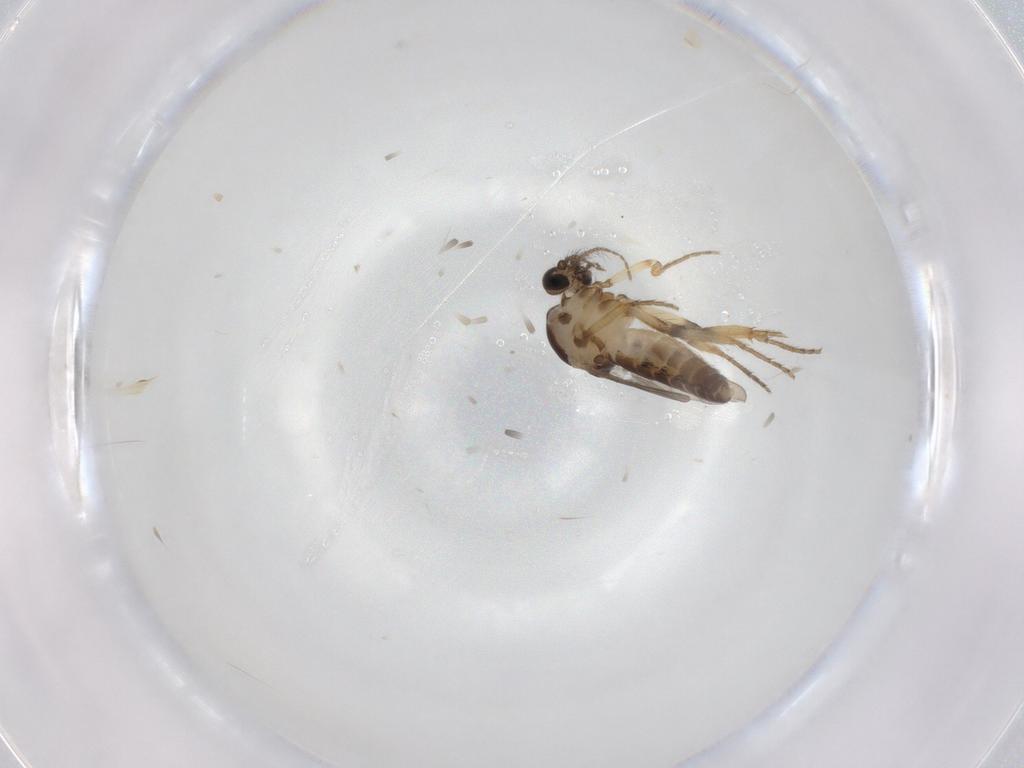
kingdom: Animalia
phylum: Arthropoda
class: Insecta
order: Diptera
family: Ceratopogonidae
